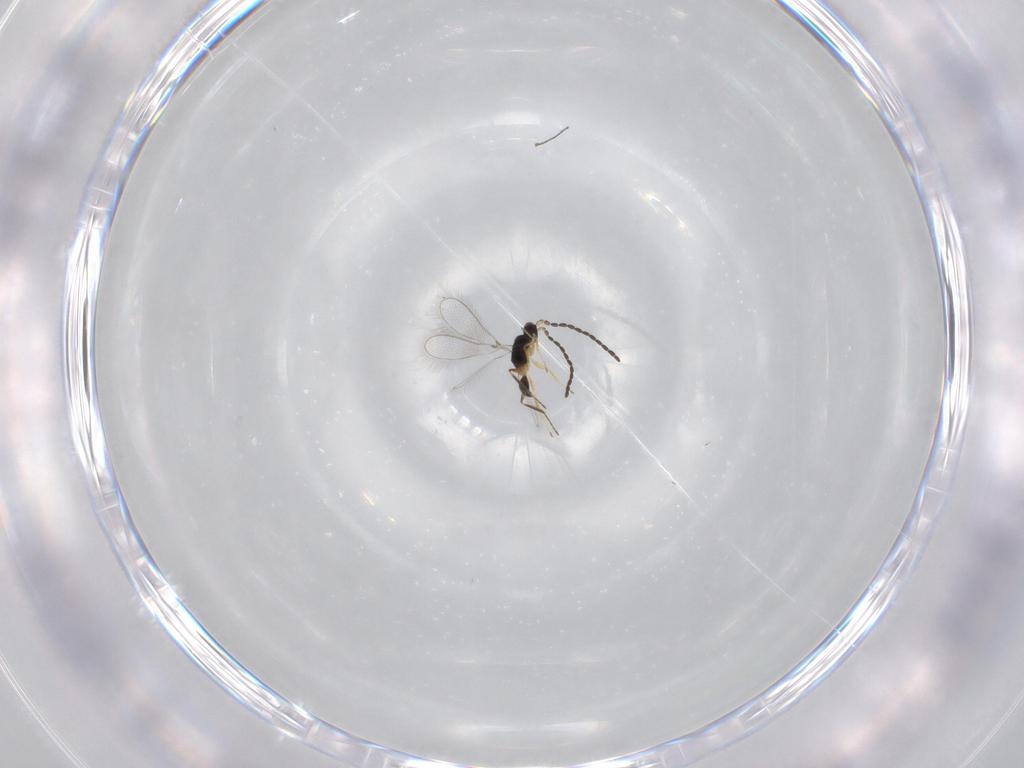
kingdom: Animalia
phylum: Arthropoda
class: Insecta
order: Hymenoptera
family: Mymaridae
